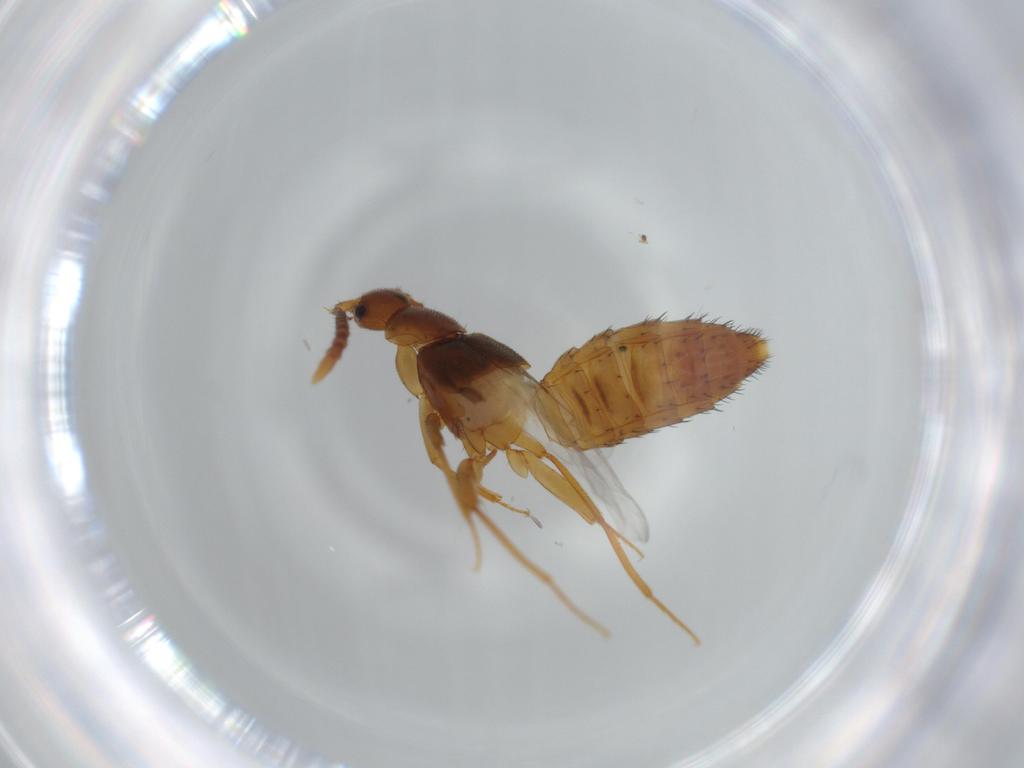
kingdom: Animalia
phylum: Arthropoda
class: Insecta
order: Coleoptera
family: Staphylinidae
